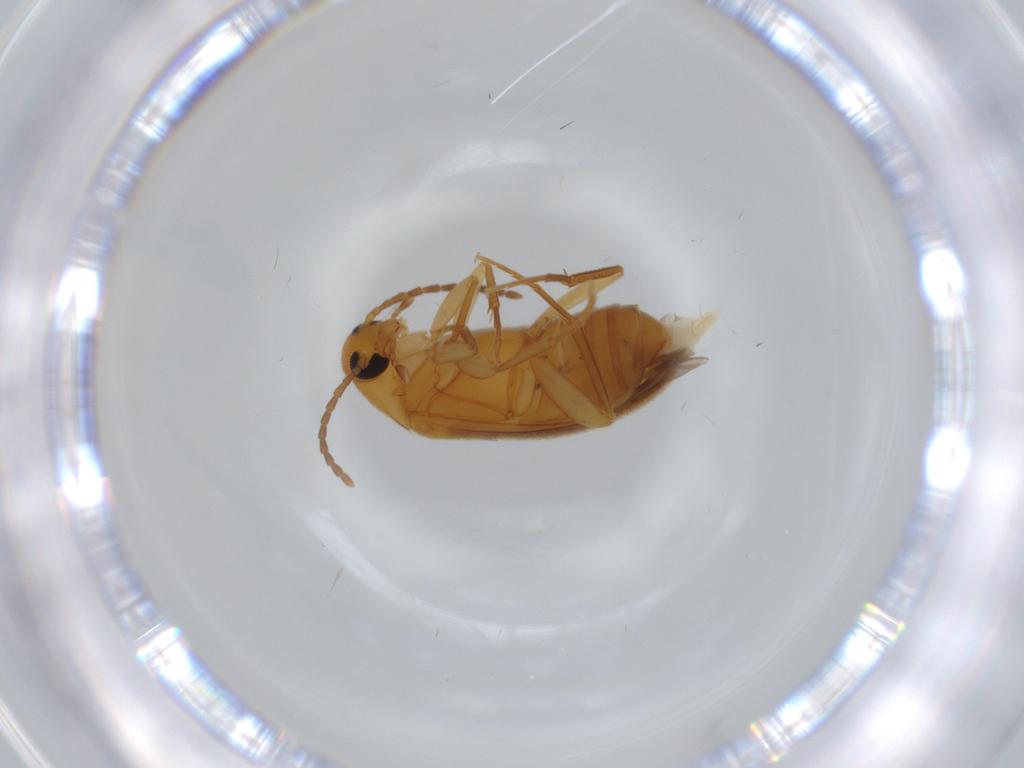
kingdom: Animalia
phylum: Arthropoda
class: Insecta
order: Coleoptera
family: Scraptiidae
